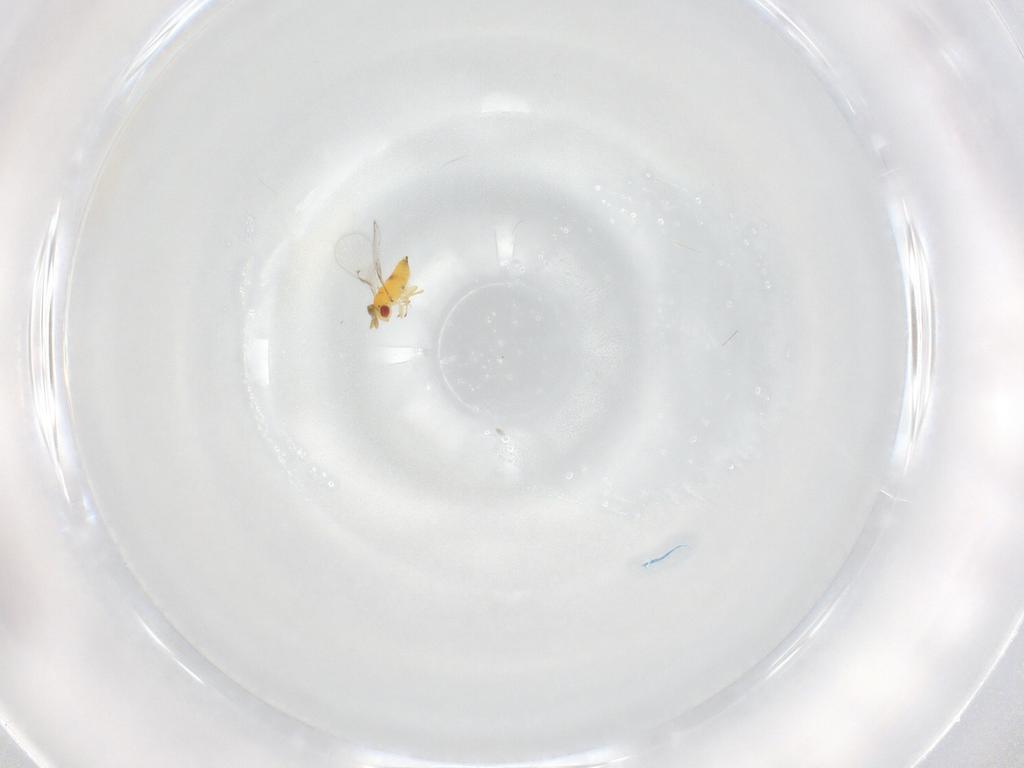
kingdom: Animalia
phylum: Arthropoda
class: Insecta
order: Hymenoptera
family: Trichogrammatidae
